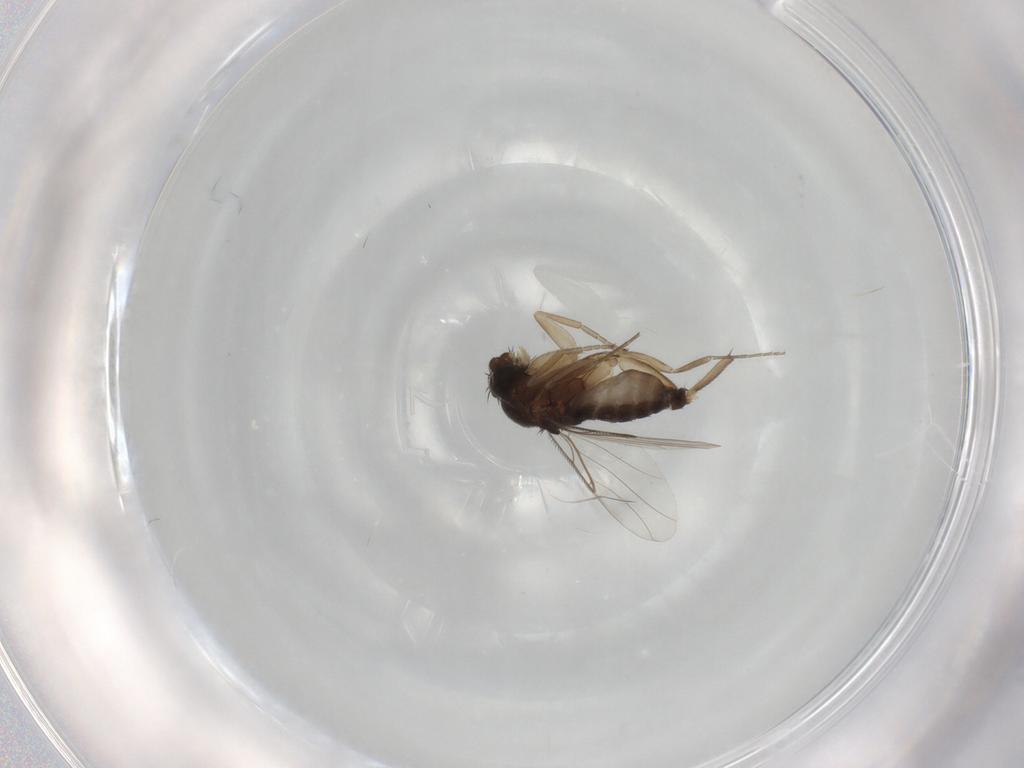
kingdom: Animalia
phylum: Arthropoda
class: Insecta
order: Diptera
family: Phoridae
